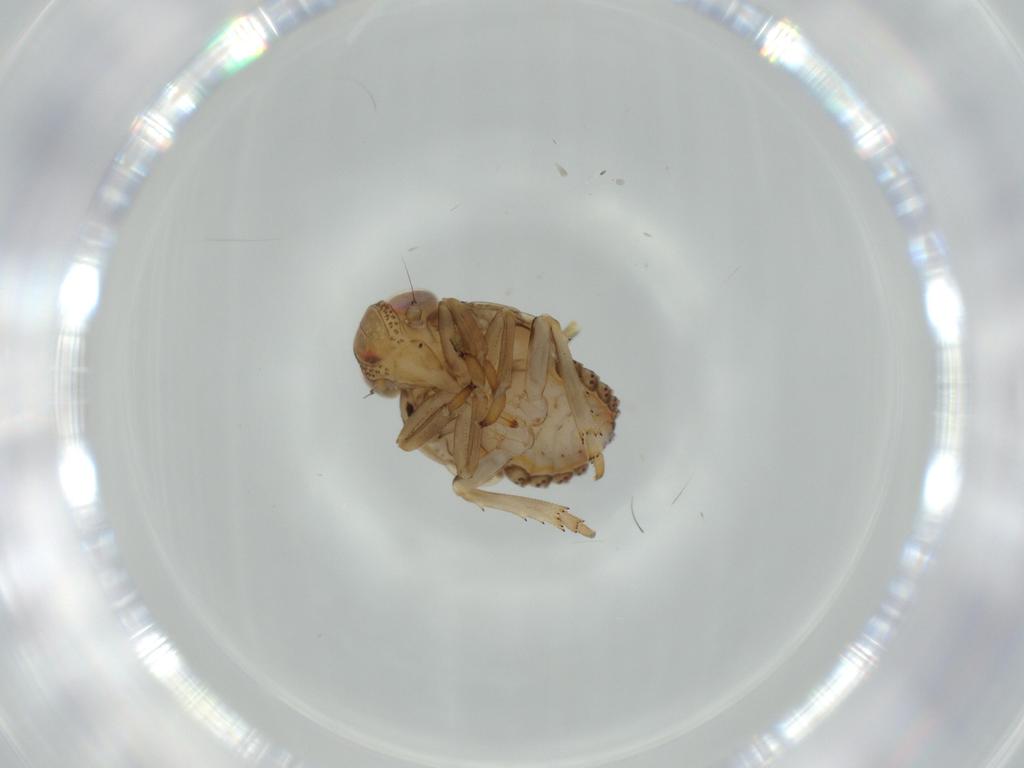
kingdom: Animalia
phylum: Arthropoda
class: Insecta
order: Hemiptera
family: Issidae
